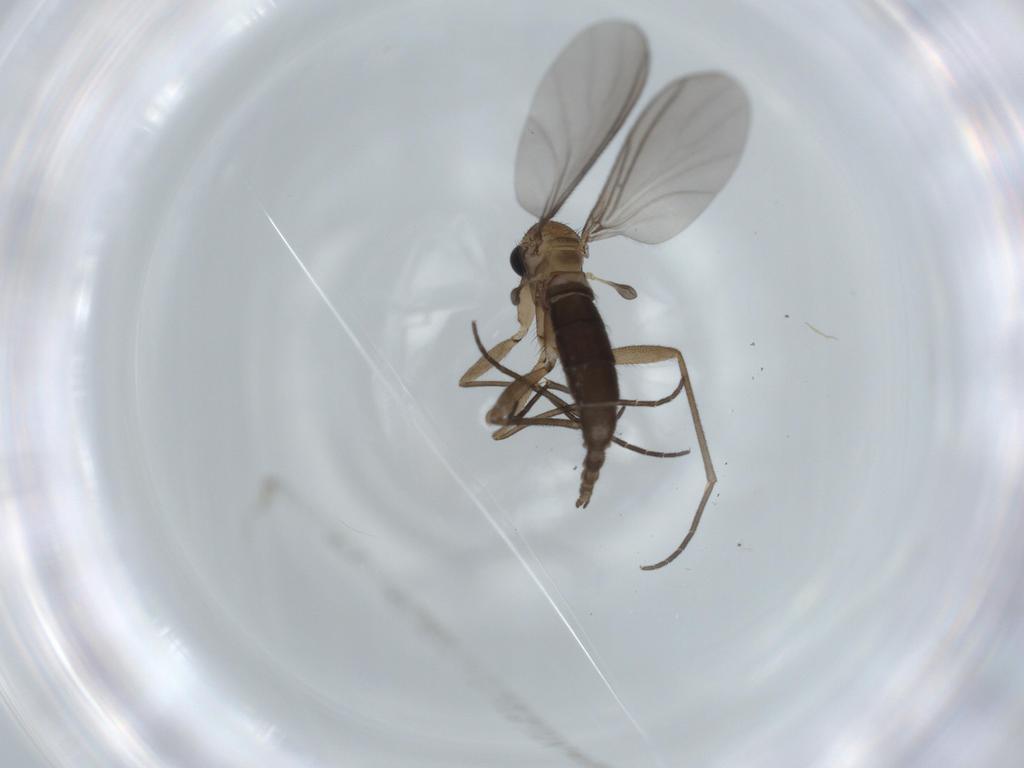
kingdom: Animalia
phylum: Arthropoda
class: Insecta
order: Diptera
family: Sciaridae
